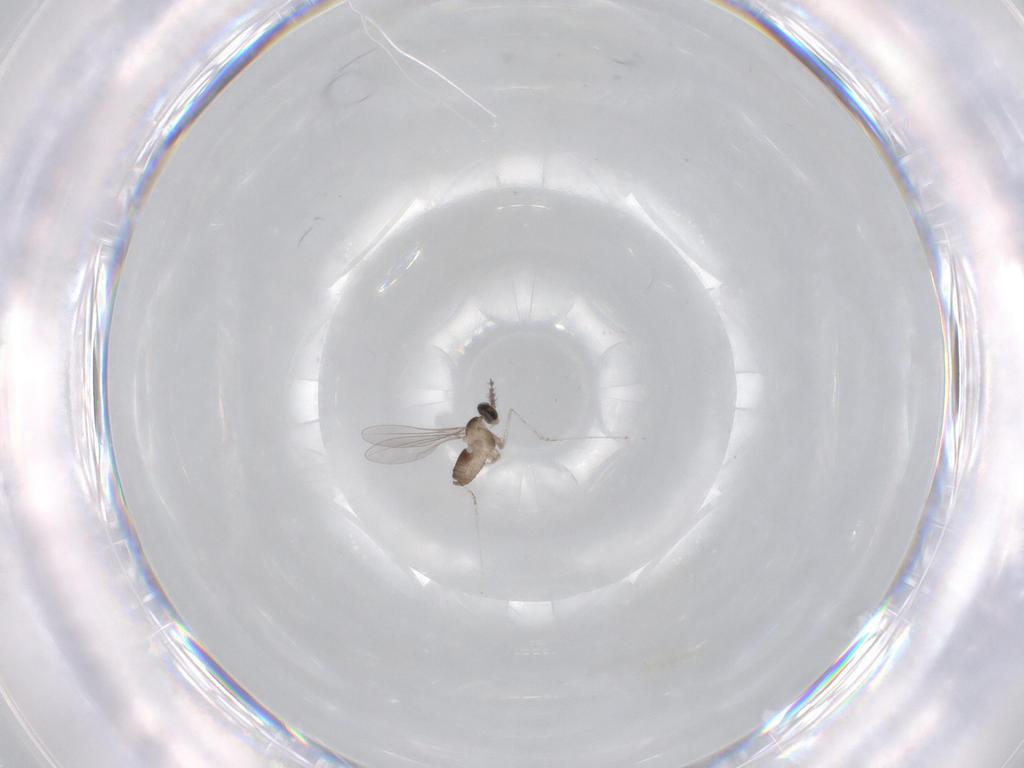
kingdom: Animalia
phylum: Arthropoda
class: Insecta
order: Diptera
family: Cecidomyiidae
